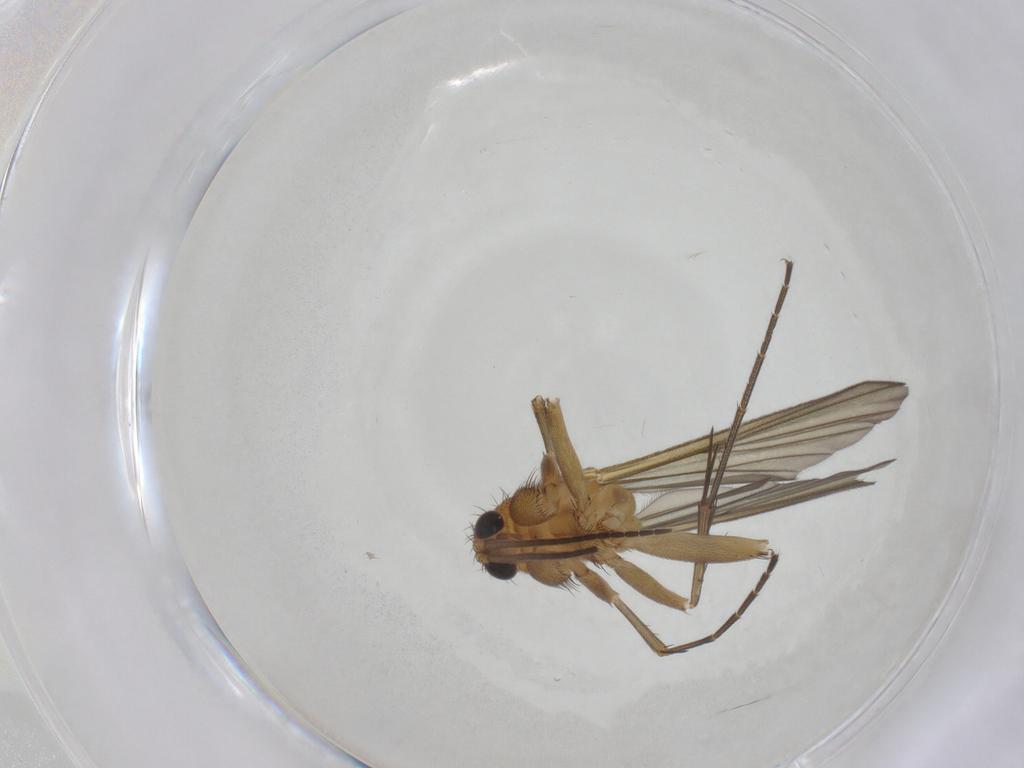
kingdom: Animalia
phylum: Arthropoda
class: Insecta
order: Diptera
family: Mycetophilidae
